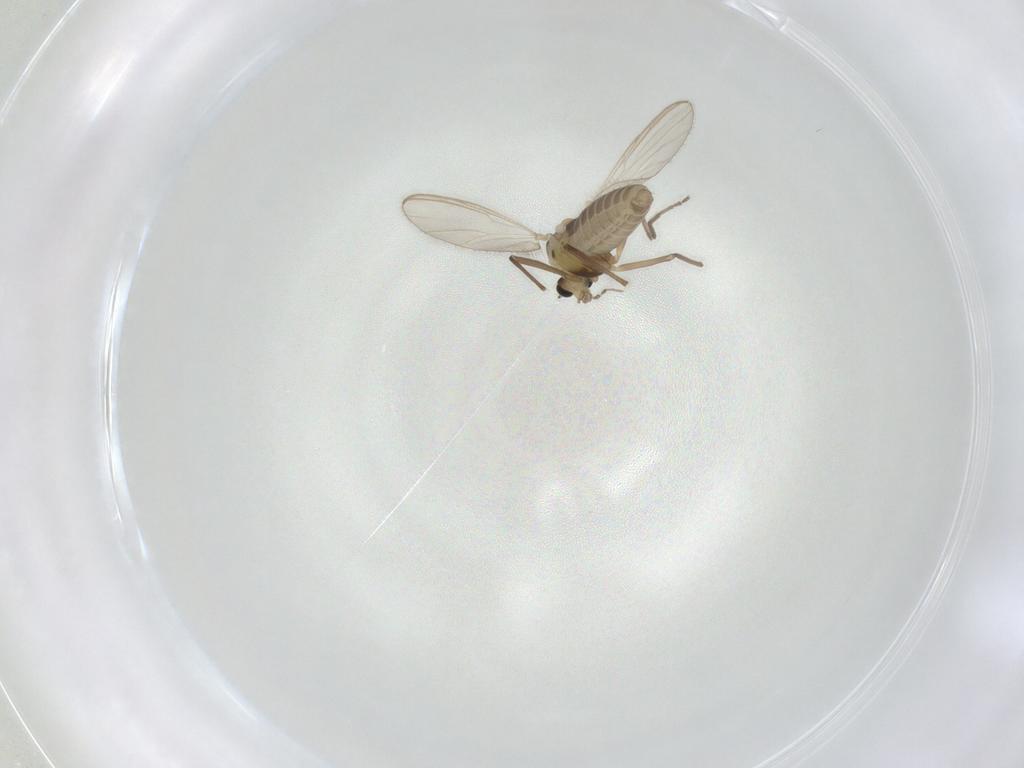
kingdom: Animalia
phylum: Arthropoda
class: Insecta
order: Diptera
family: Chironomidae
